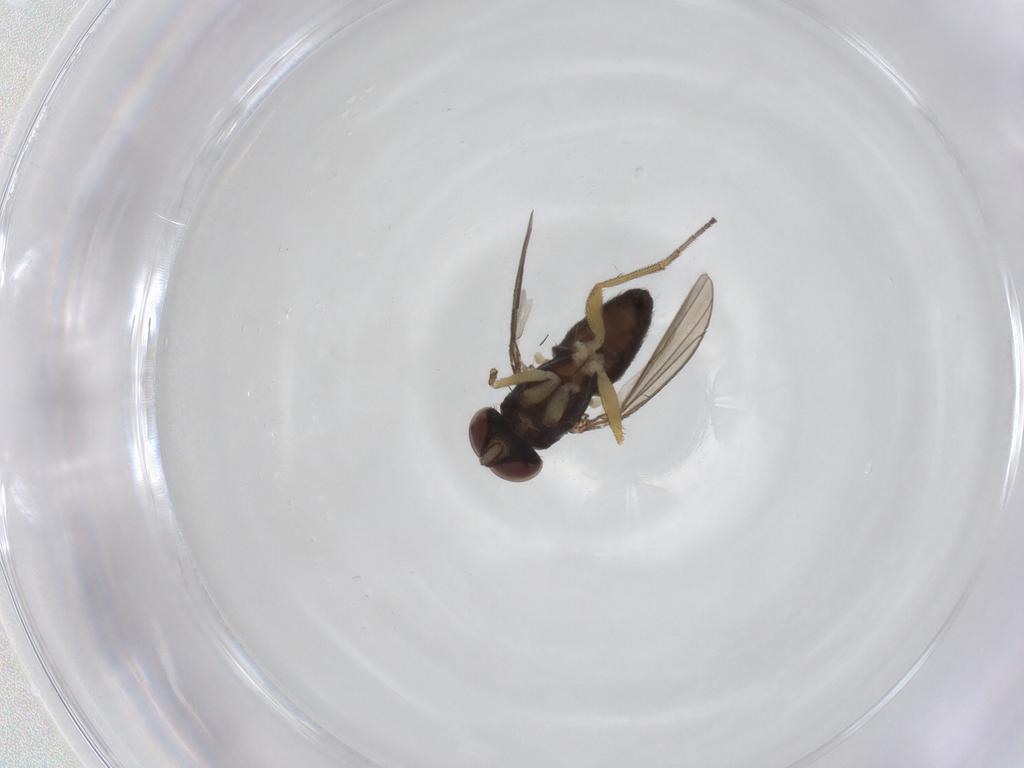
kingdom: Animalia
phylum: Arthropoda
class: Insecta
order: Diptera
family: Dolichopodidae
